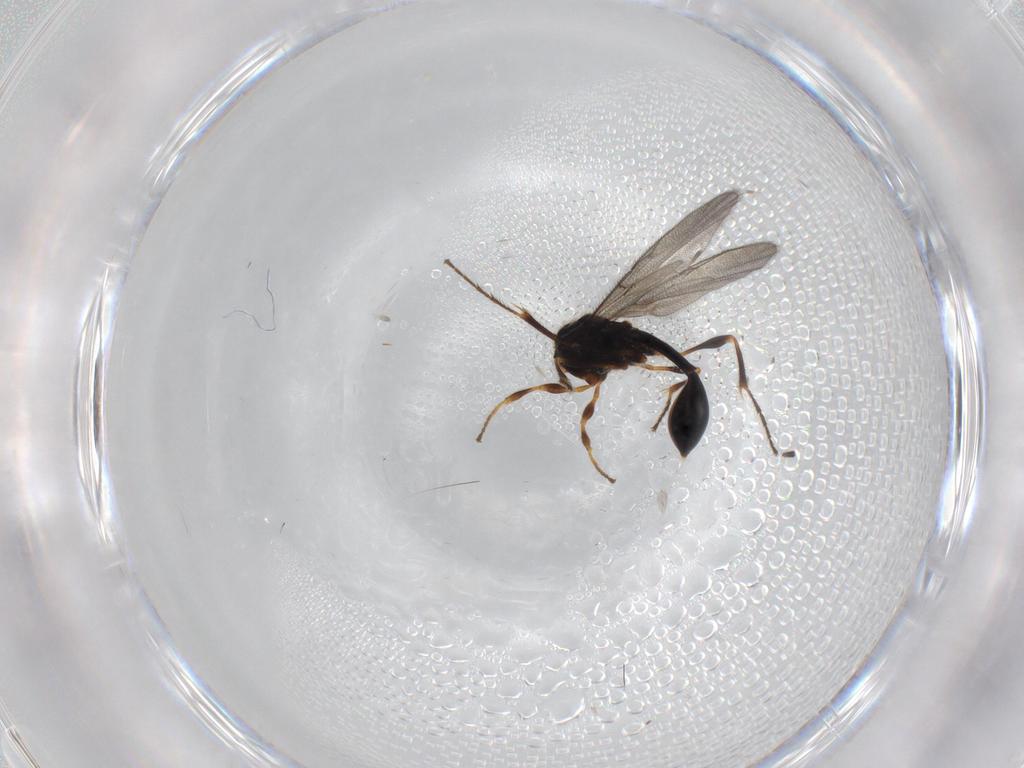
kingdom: Animalia
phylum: Arthropoda
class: Insecta
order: Hymenoptera
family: Diapriidae
